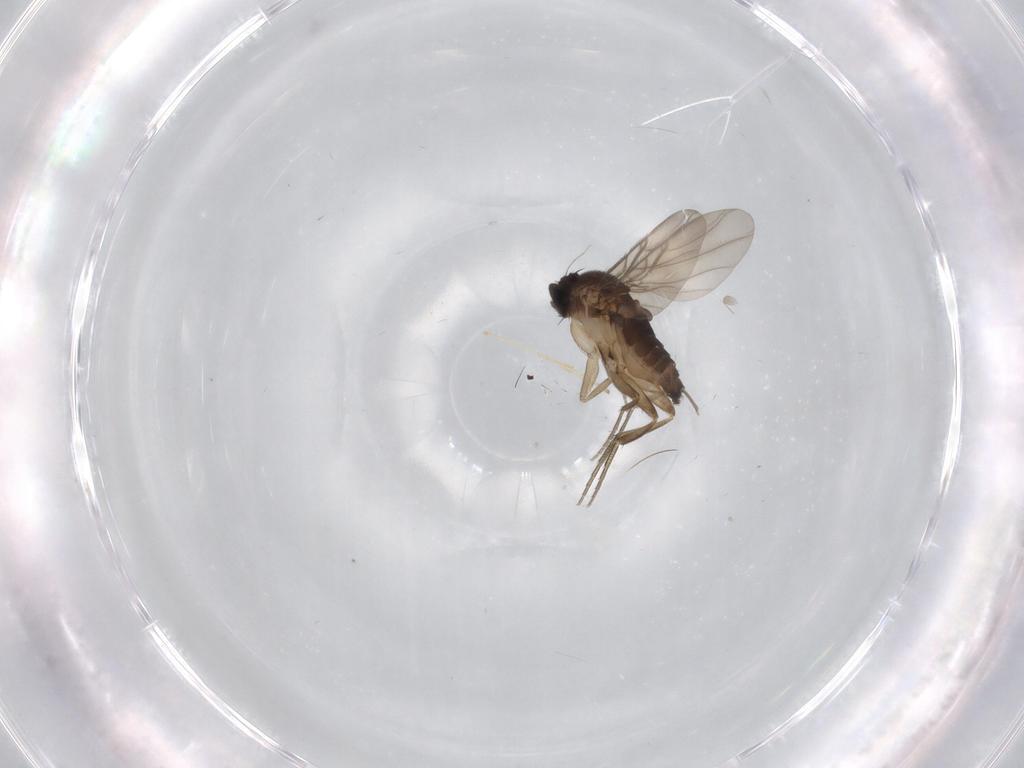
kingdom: Animalia
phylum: Arthropoda
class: Insecta
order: Diptera
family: Phoridae
